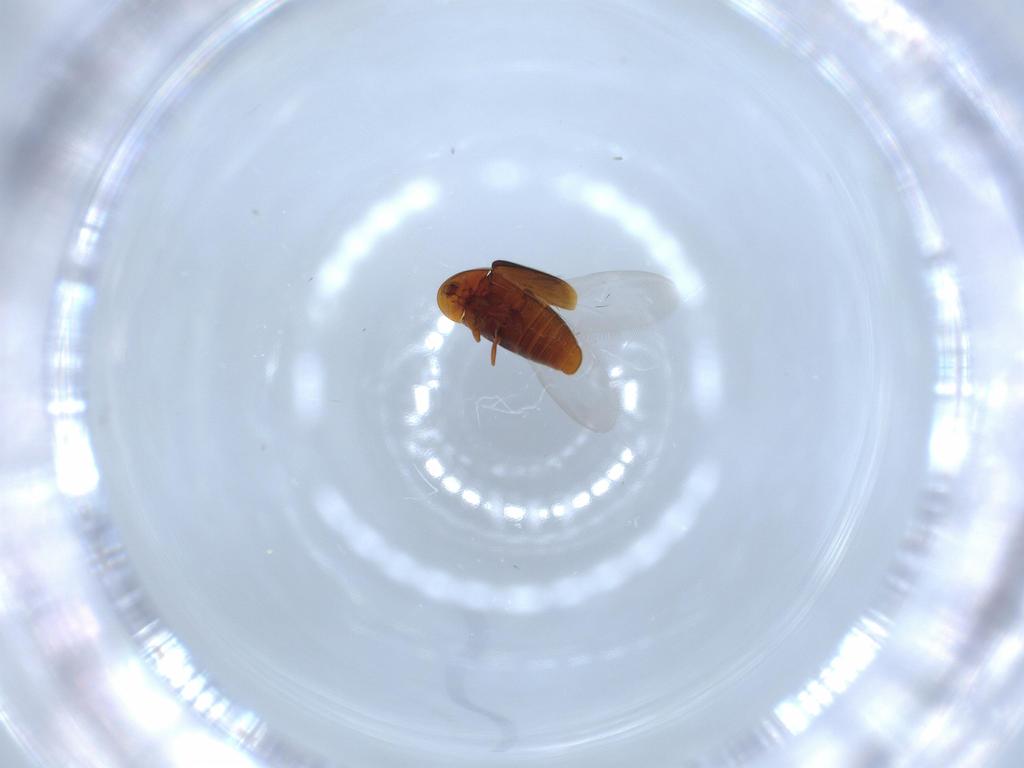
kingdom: Animalia
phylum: Arthropoda
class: Insecta
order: Coleoptera
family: Curculionidae
